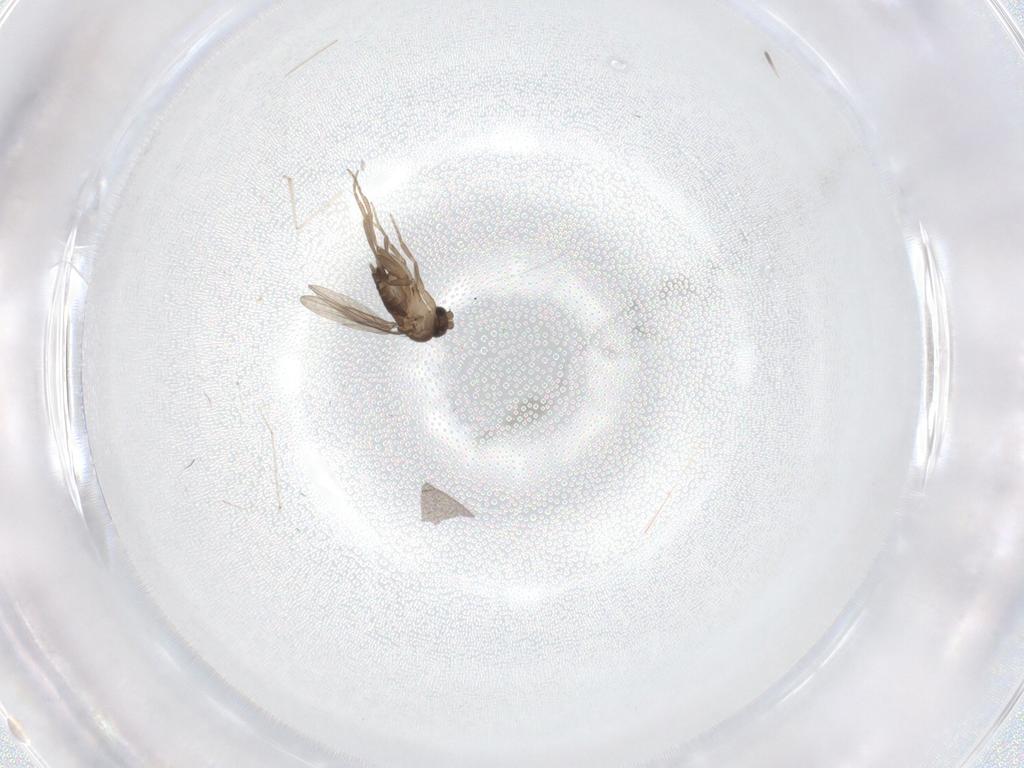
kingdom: Animalia
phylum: Arthropoda
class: Insecta
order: Diptera
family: Cecidomyiidae
